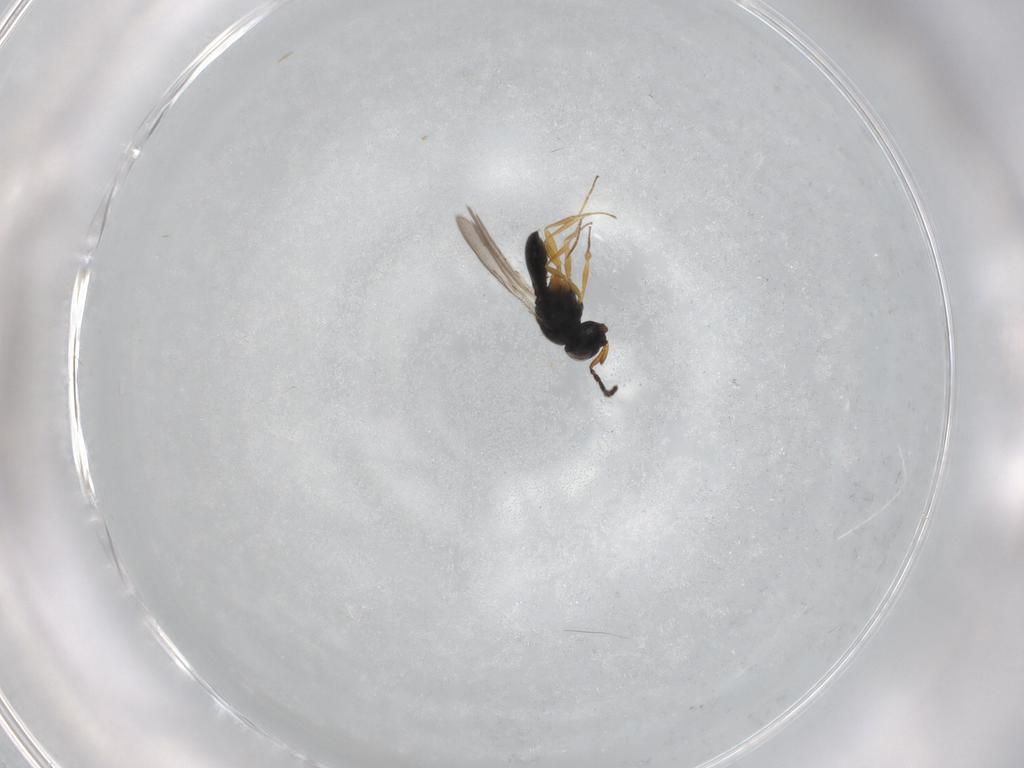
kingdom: Animalia
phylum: Arthropoda
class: Insecta
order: Hymenoptera
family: Scelionidae
